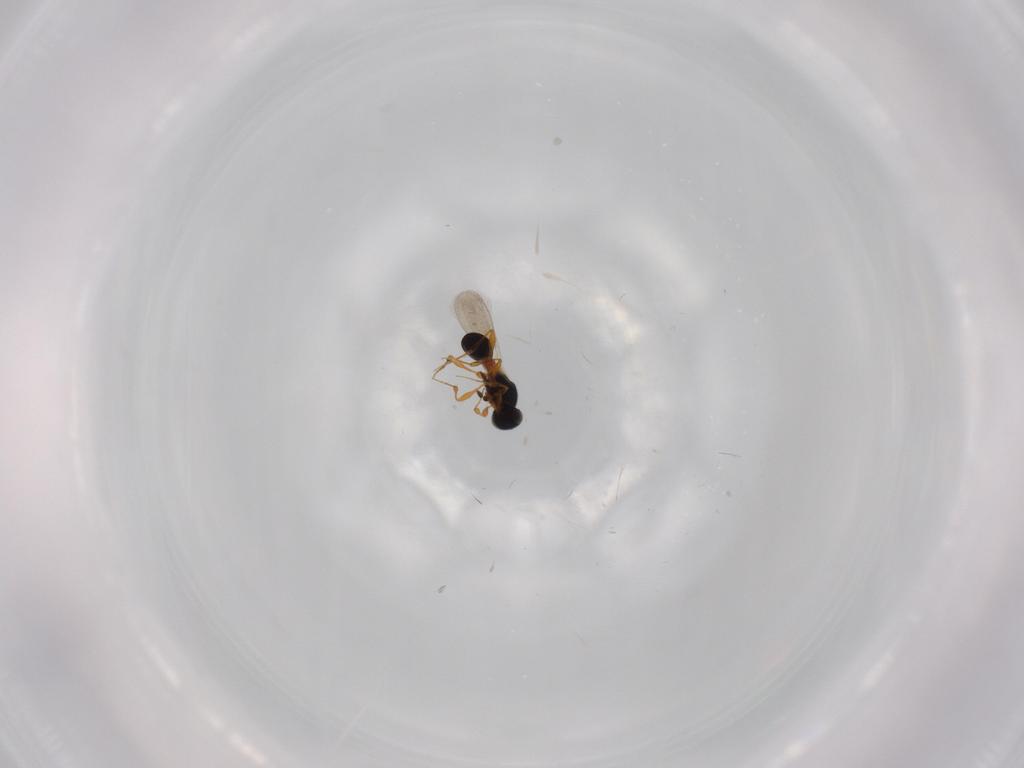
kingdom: Animalia
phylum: Arthropoda
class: Insecta
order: Hymenoptera
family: Platygastridae
